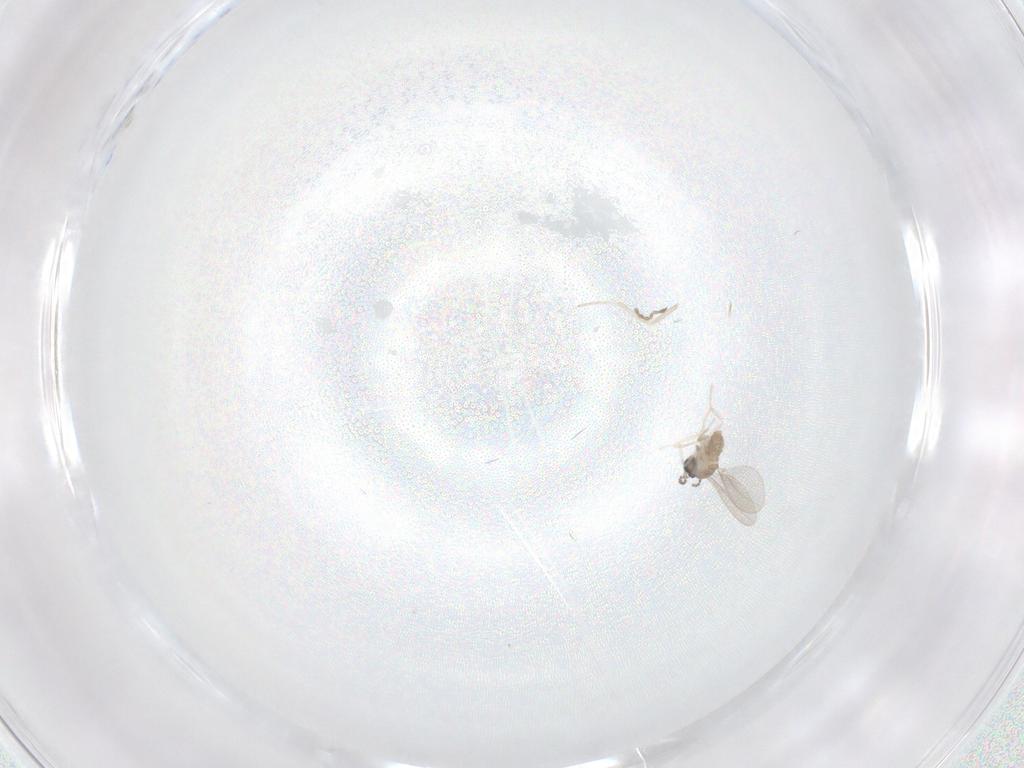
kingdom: Animalia
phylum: Arthropoda
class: Insecta
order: Diptera
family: Cecidomyiidae
